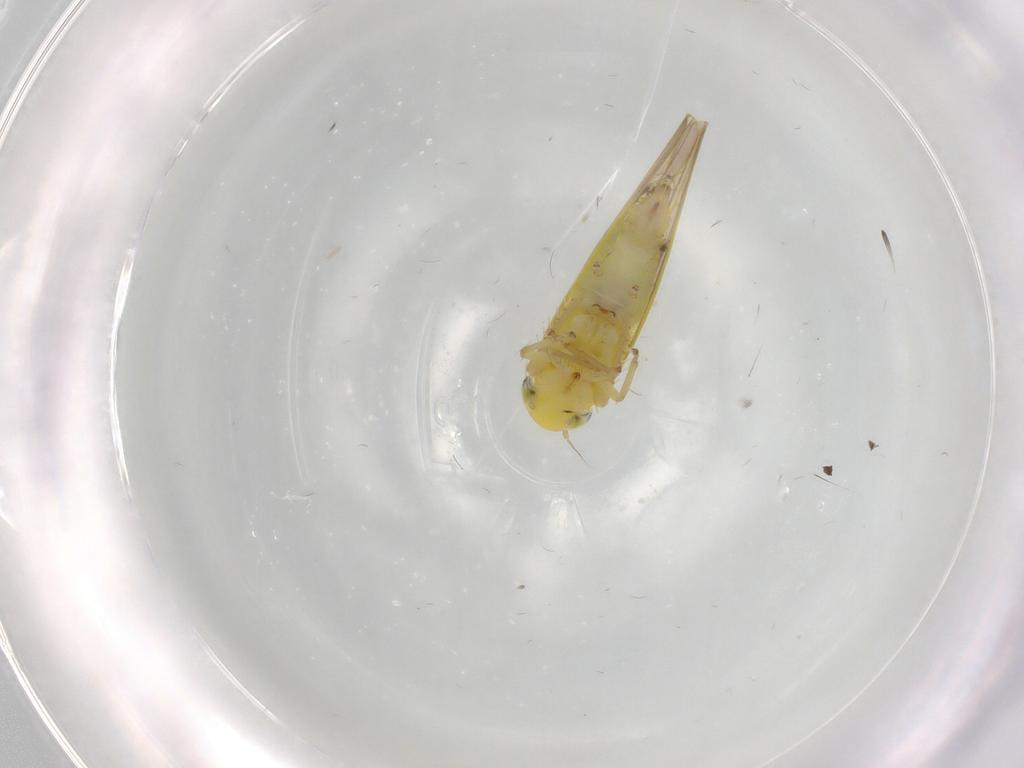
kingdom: Animalia
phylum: Arthropoda
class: Insecta
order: Hemiptera
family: Cicadellidae
